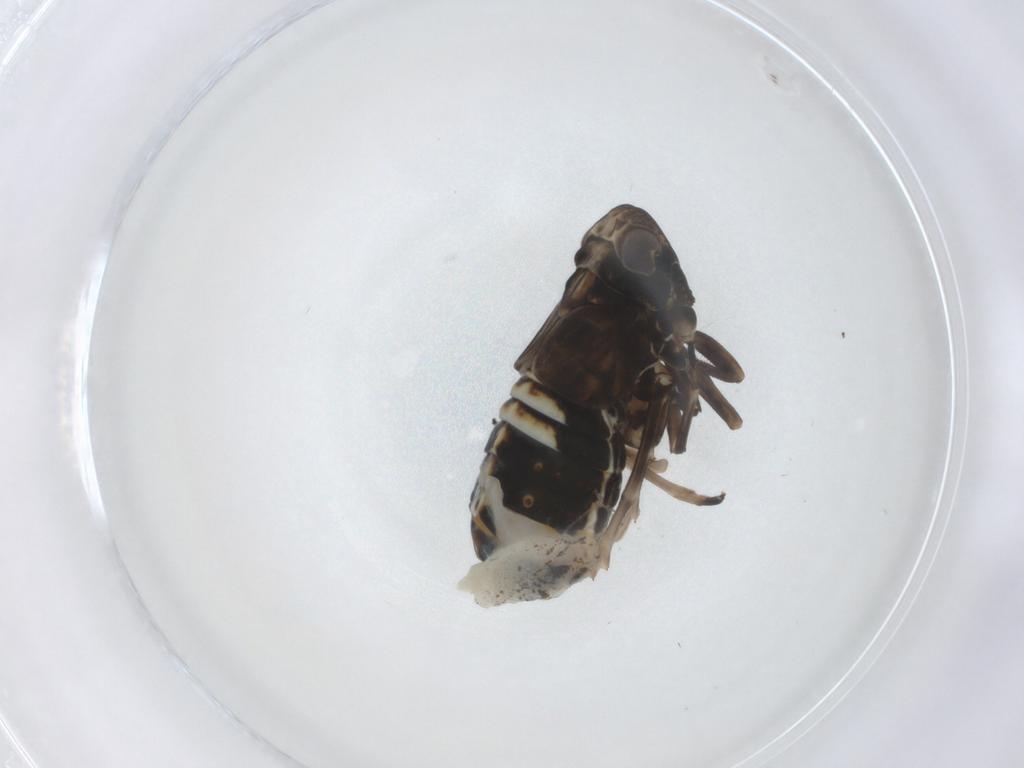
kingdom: Animalia
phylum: Arthropoda
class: Insecta
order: Hemiptera
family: Delphacidae
